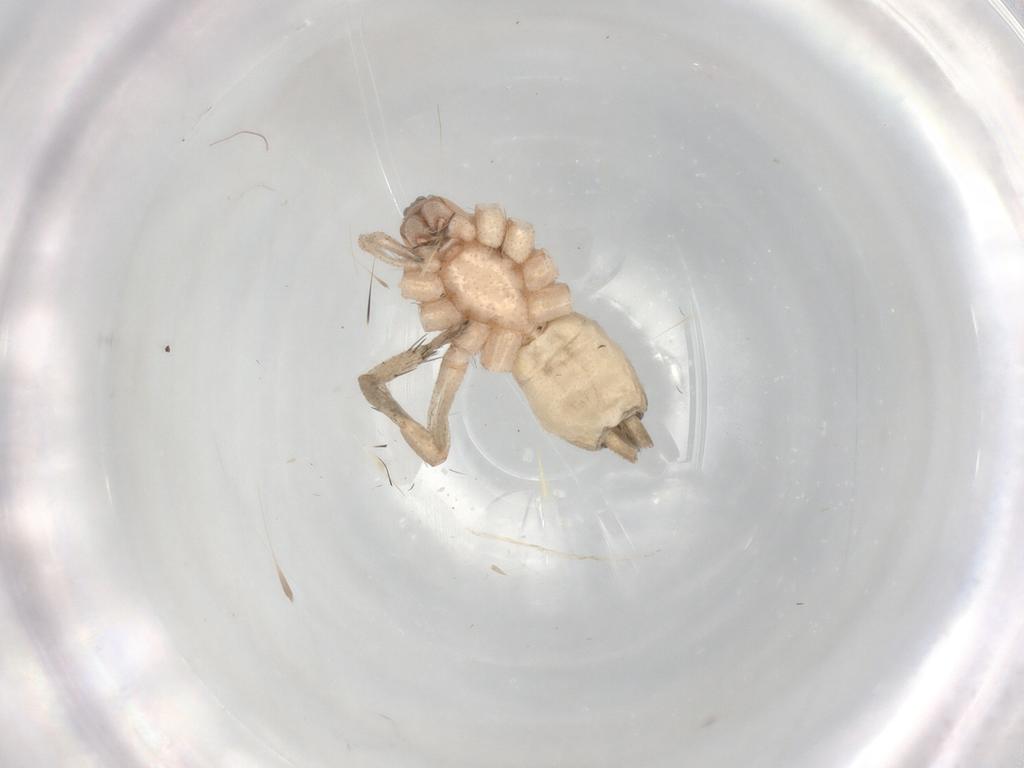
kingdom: Animalia
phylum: Arthropoda
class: Arachnida
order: Araneae
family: Gnaphosidae
